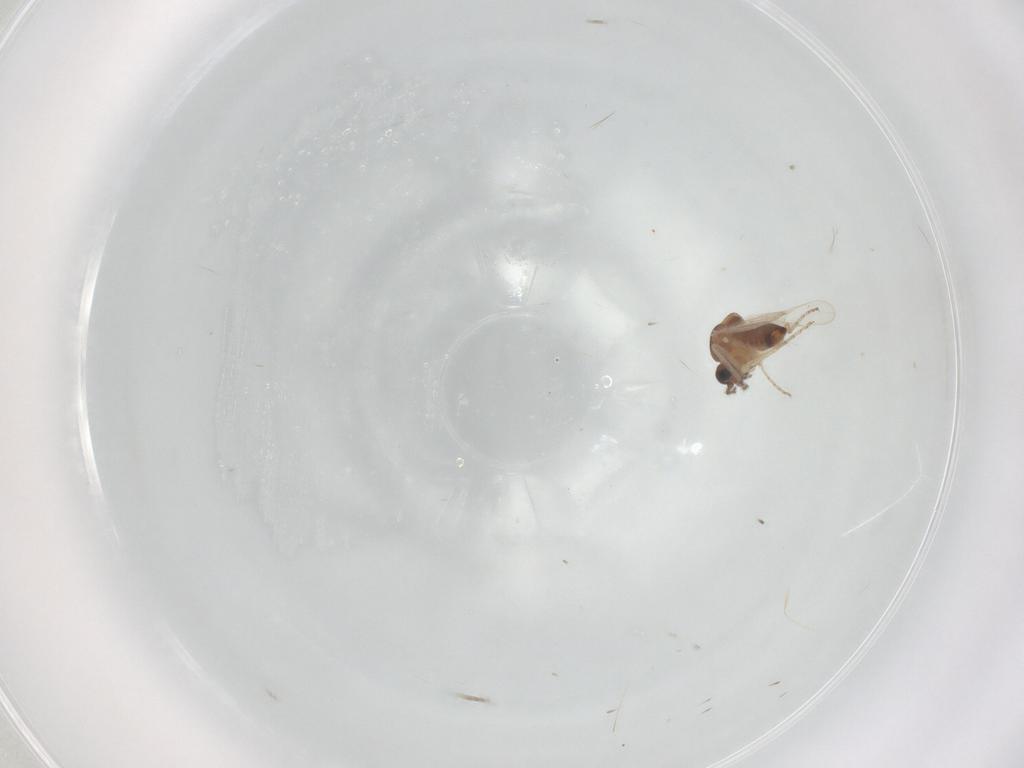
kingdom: Animalia
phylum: Arthropoda
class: Insecta
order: Diptera
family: Ceratopogonidae
